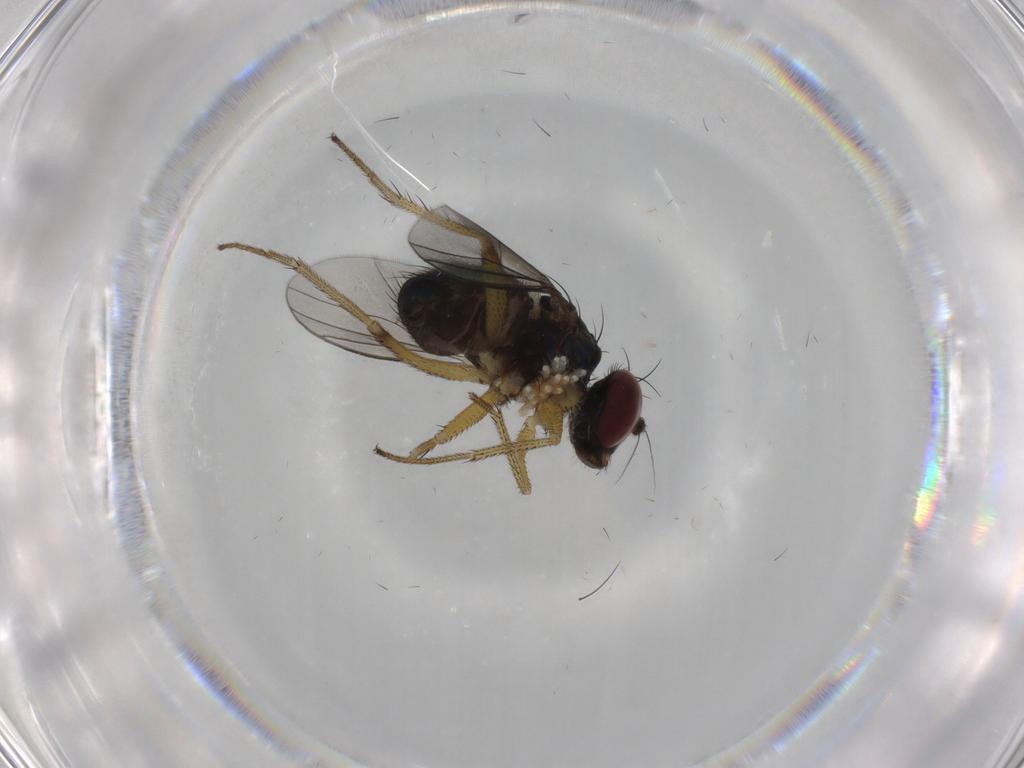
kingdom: Animalia
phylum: Arthropoda
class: Insecta
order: Diptera
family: Dolichopodidae
